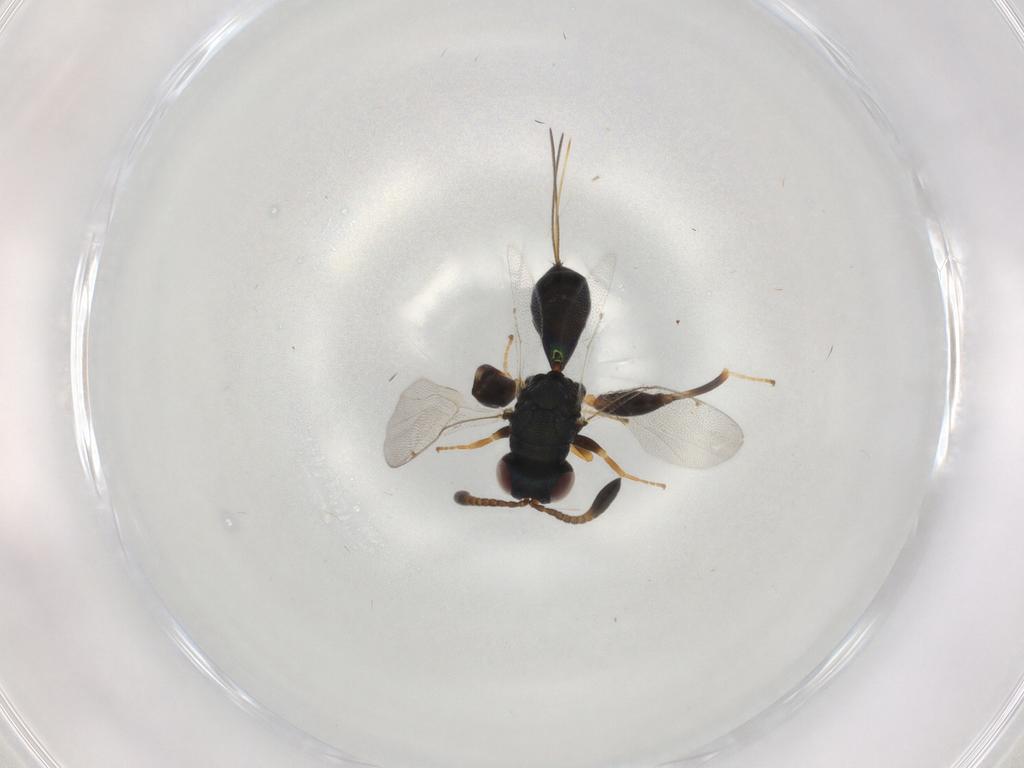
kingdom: Animalia
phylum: Arthropoda
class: Insecta
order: Hymenoptera
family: Torymidae
